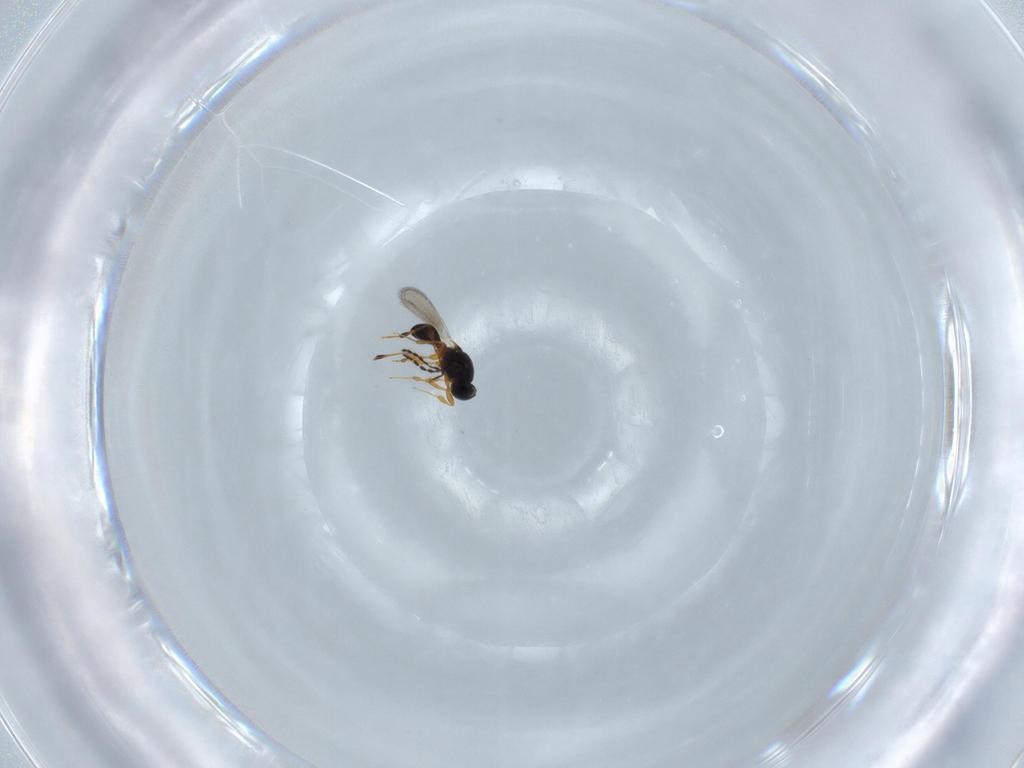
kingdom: Animalia
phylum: Arthropoda
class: Insecta
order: Hymenoptera
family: Platygastridae
